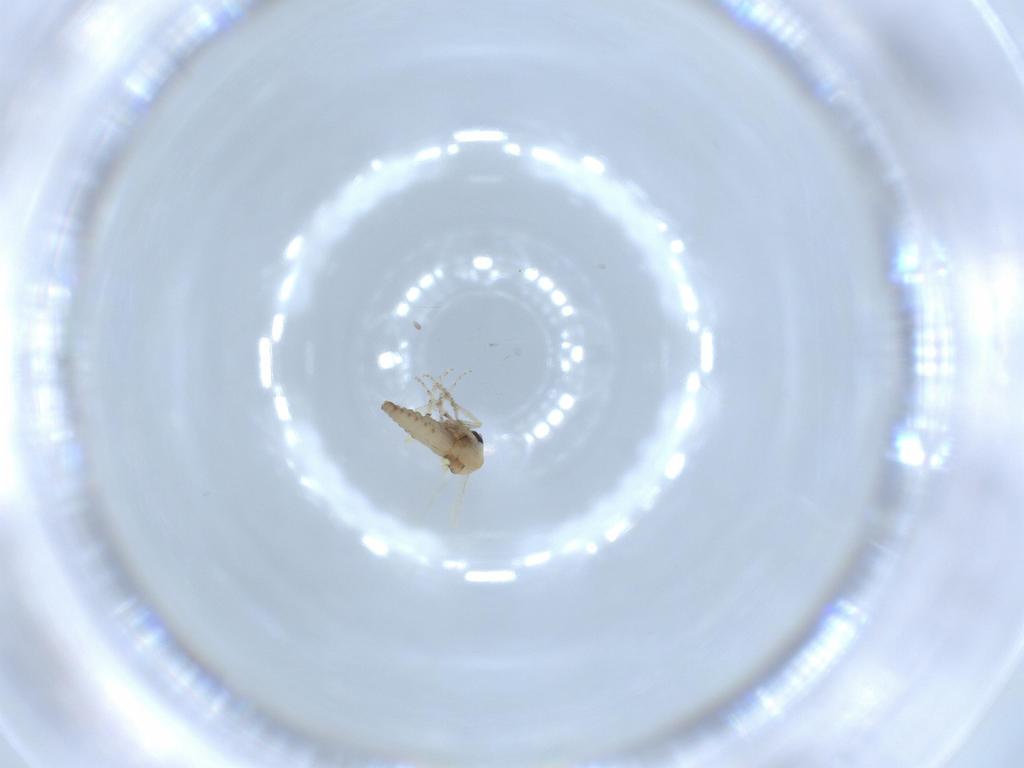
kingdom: Animalia
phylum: Arthropoda
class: Insecta
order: Diptera
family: Ceratopogonidae
